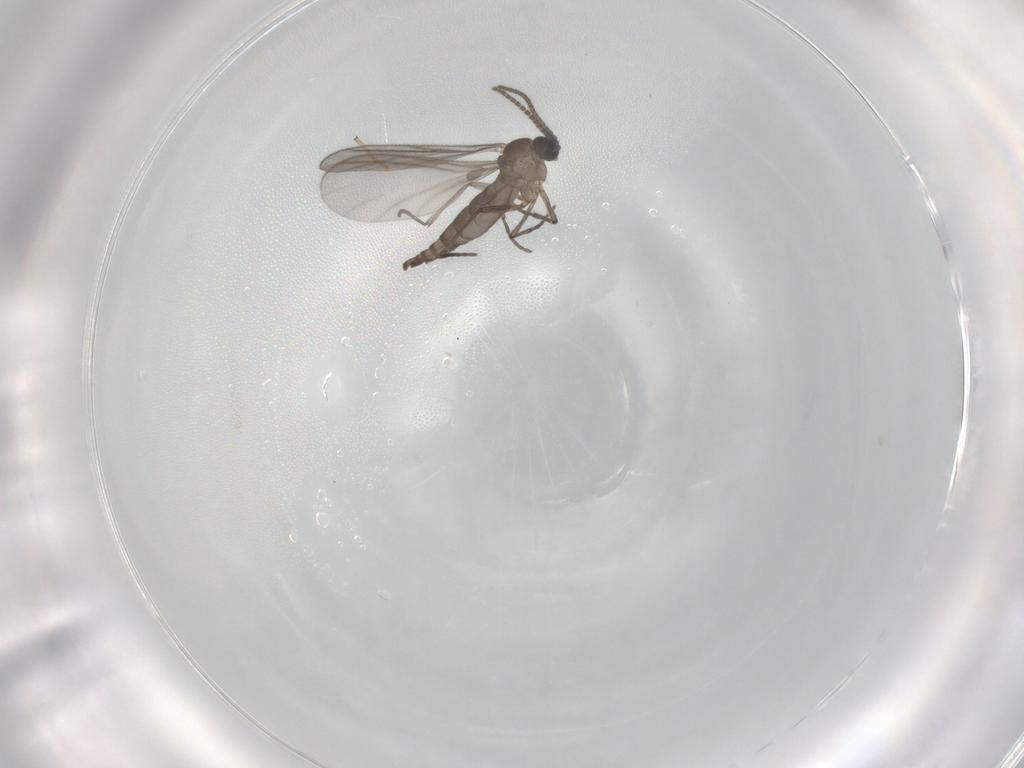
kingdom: Animalia
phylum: Arthropoda
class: Insecta
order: Diptera
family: Sciaridae
